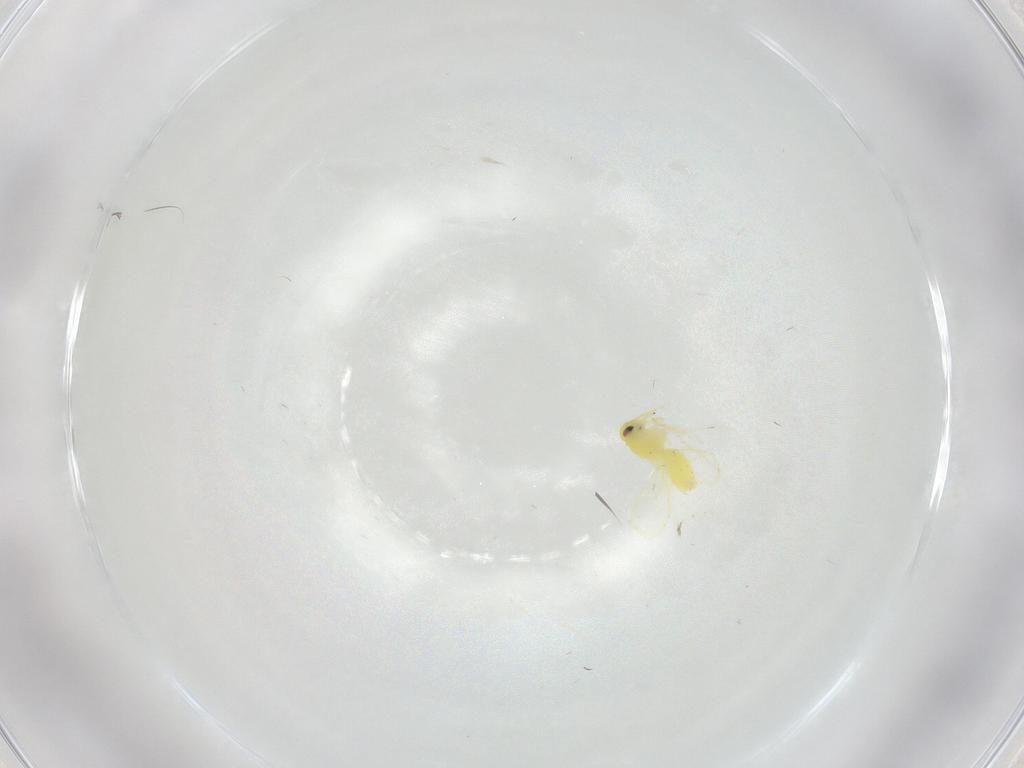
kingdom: Animalia
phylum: Arthropoda
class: Insecta
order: Hemiptera
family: Aleyrodidae
